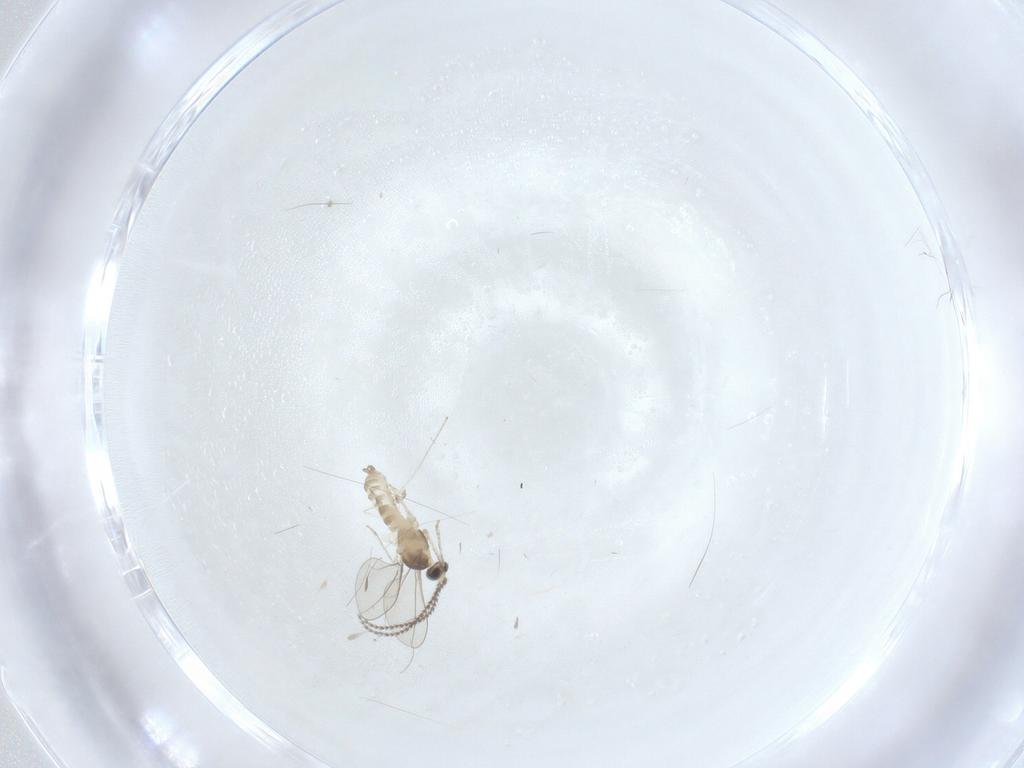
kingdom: Animalia
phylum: Arthropoda
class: Insecta
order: Diptera
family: Cecidomyiidae
